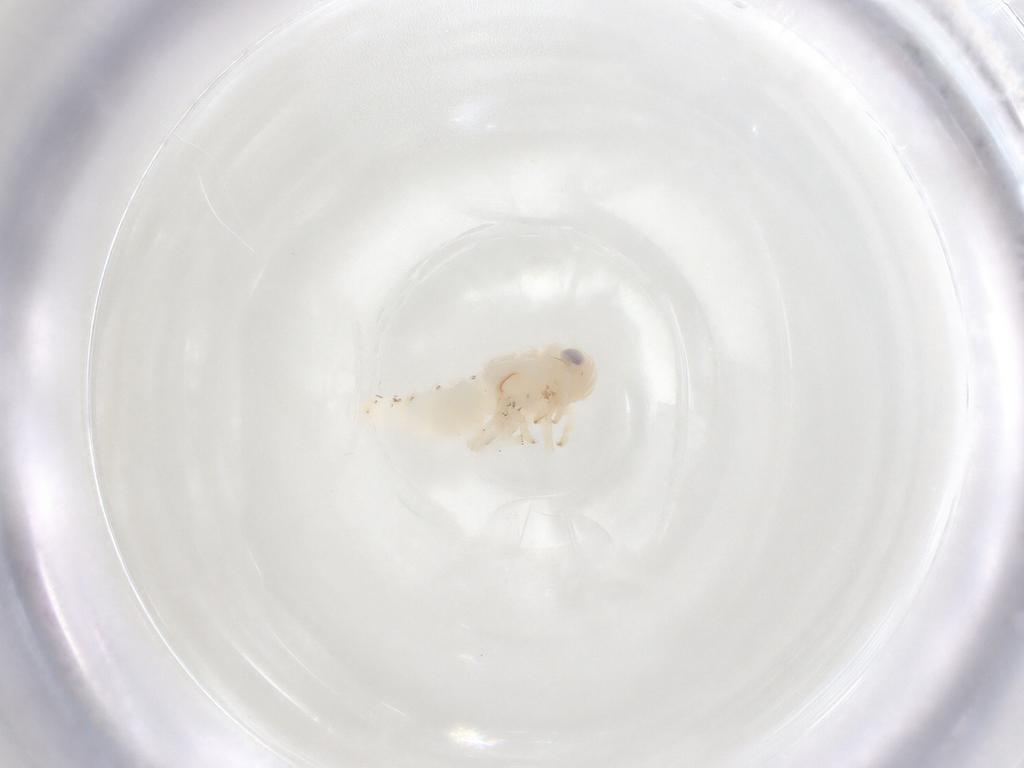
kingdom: Animalia
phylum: Arthropoda
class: Insecta
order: Hemiptera
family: Nogodinidae
